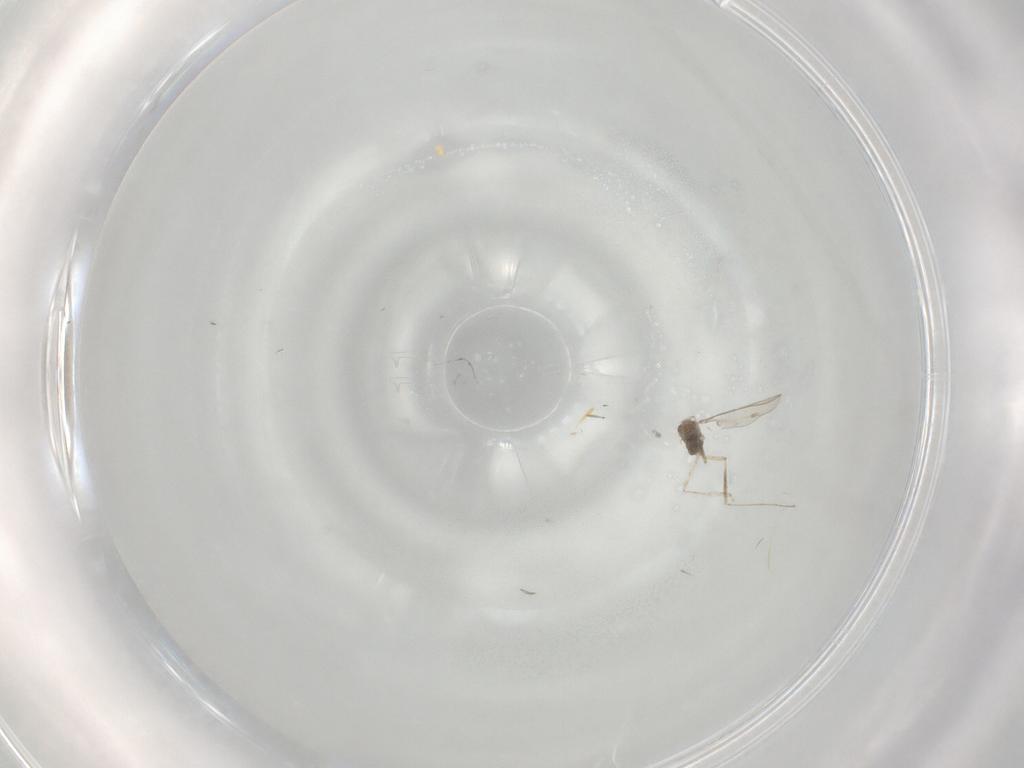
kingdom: Animalia
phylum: Arthropoda
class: Insecta
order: Diptera
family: Cecidomyiidae
